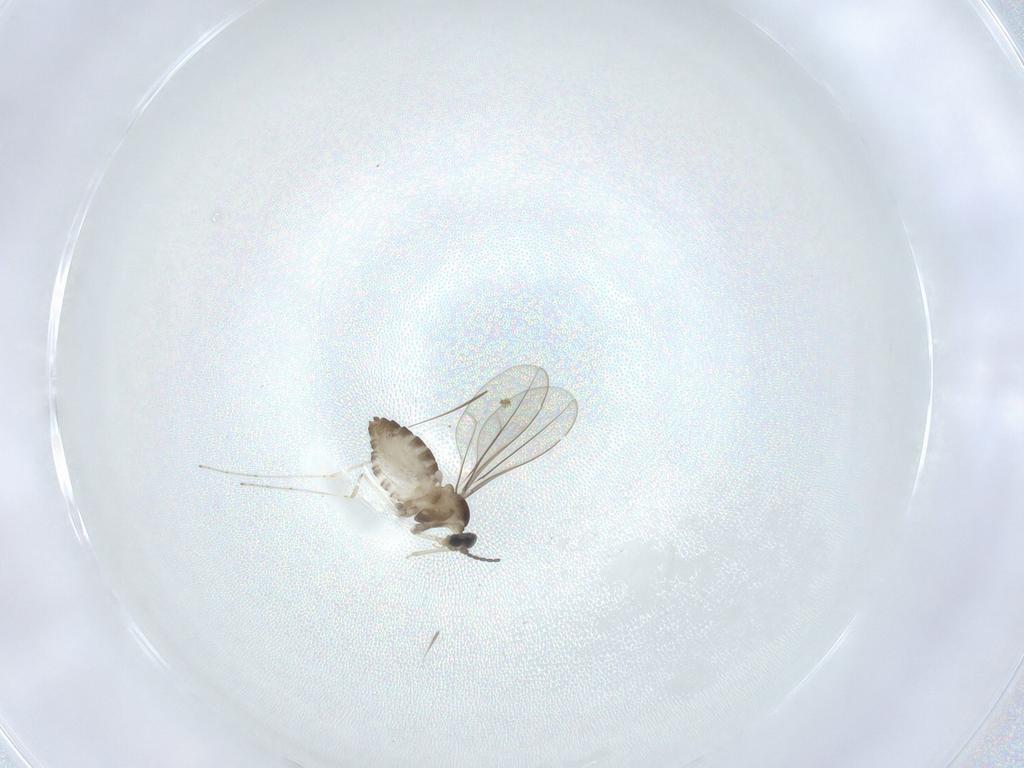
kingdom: Animalia
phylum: Arthropoda
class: Insecta
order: Diptera
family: Cecidomyiidae
